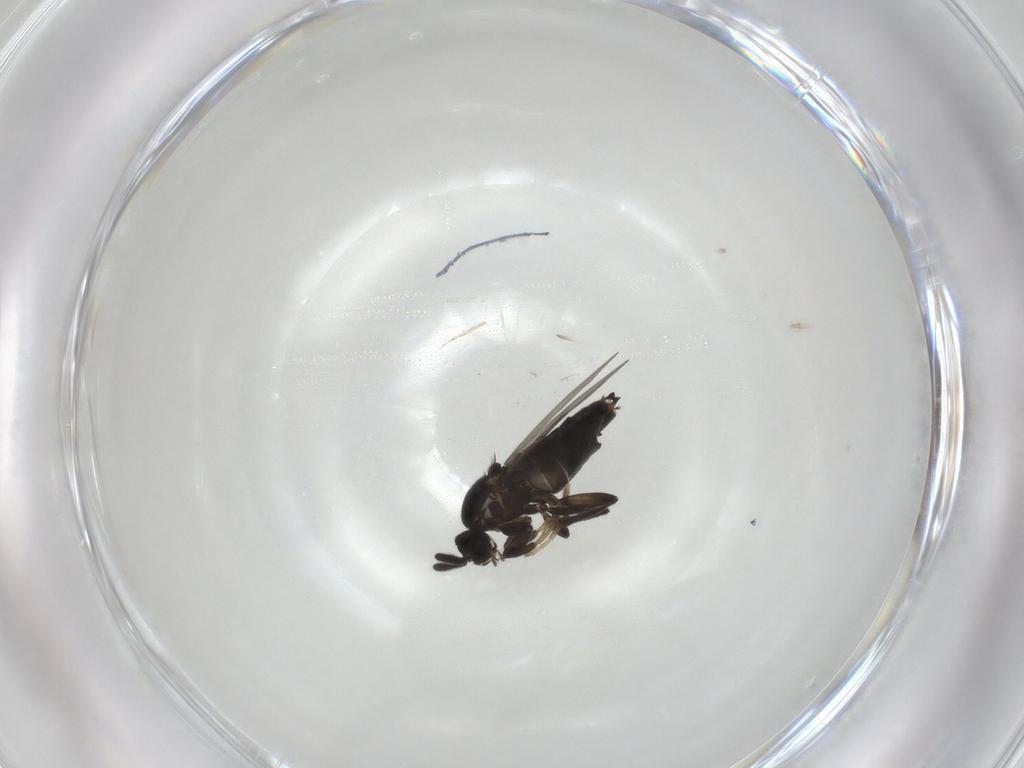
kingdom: Animalia
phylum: Arthropoda
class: Insecta
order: Diptera
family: Scatopsidae
